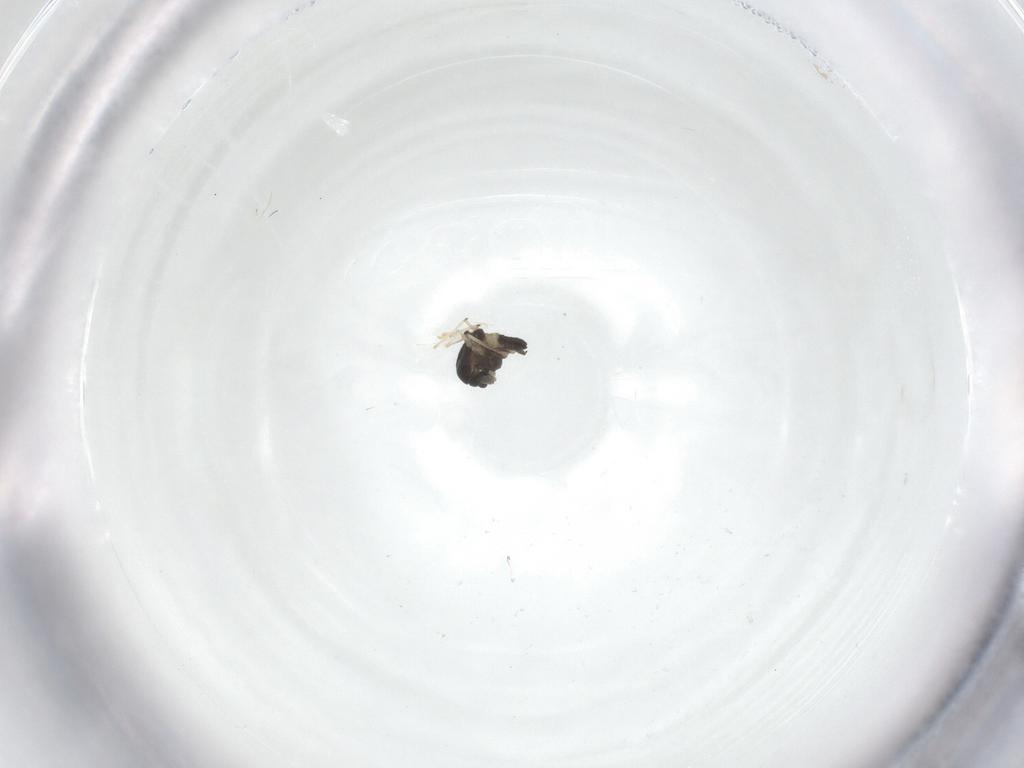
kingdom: Animalia
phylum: Arthropoda
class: Insecta
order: Diptera
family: Chironomidae
